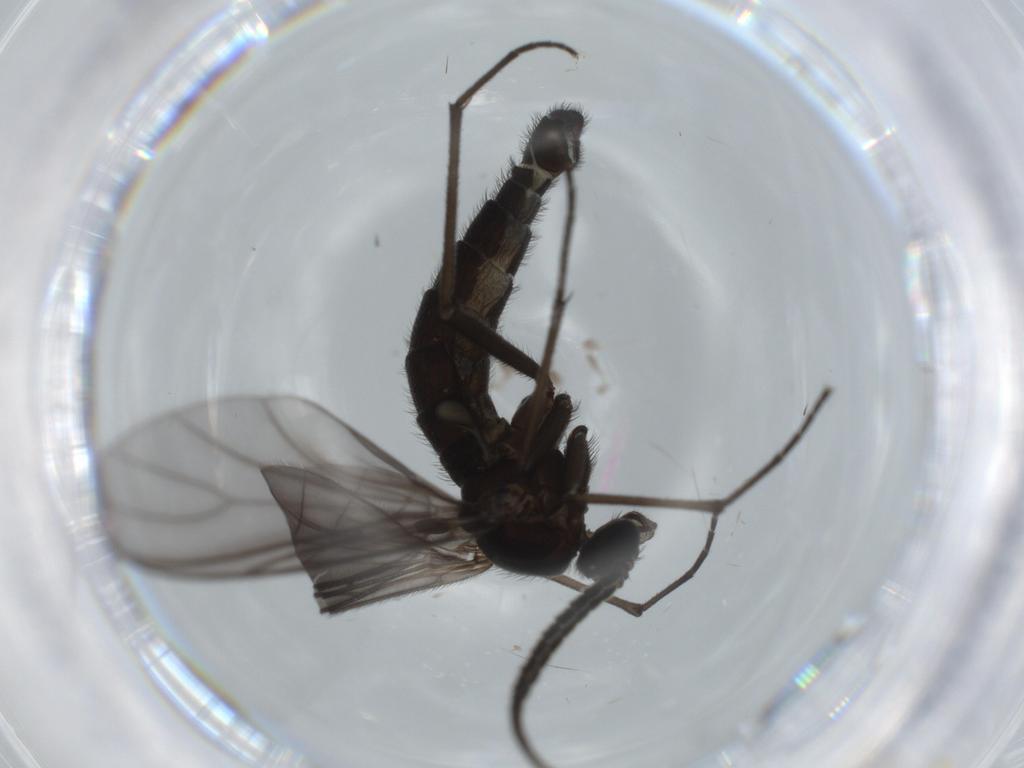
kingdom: Animalia
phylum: Arthropoda
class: Insecta
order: Diptera
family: Sciaridae
